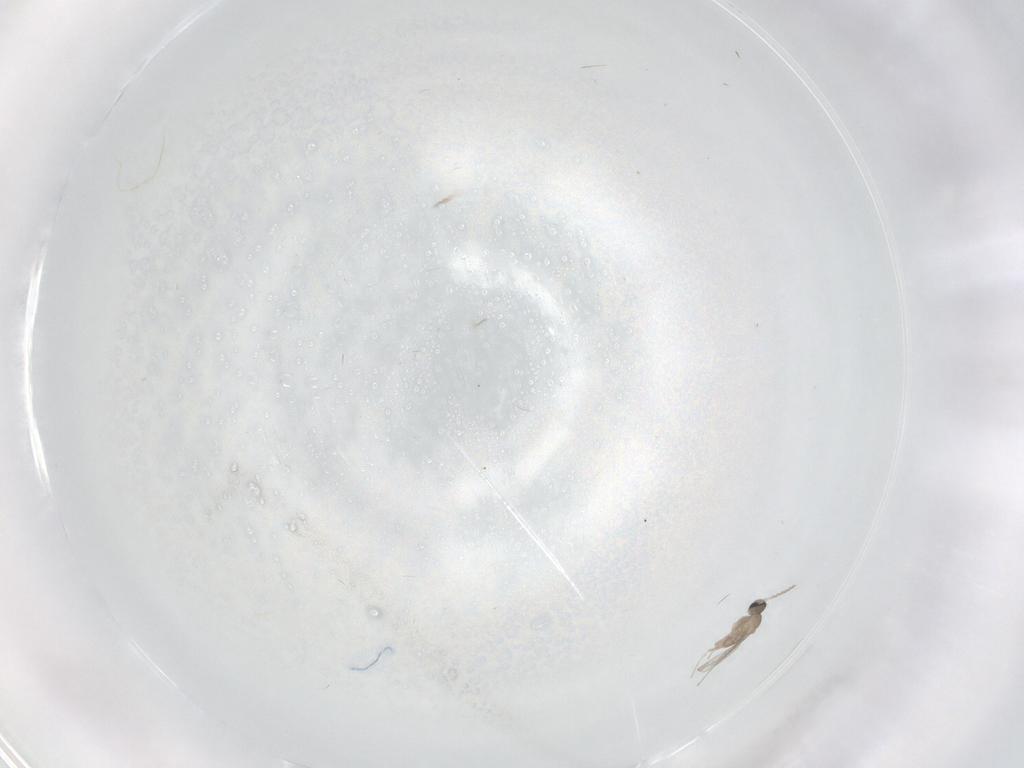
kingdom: Animalia
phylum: Arthropoda
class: Insecta
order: Diptera
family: Cecidomyiidae
